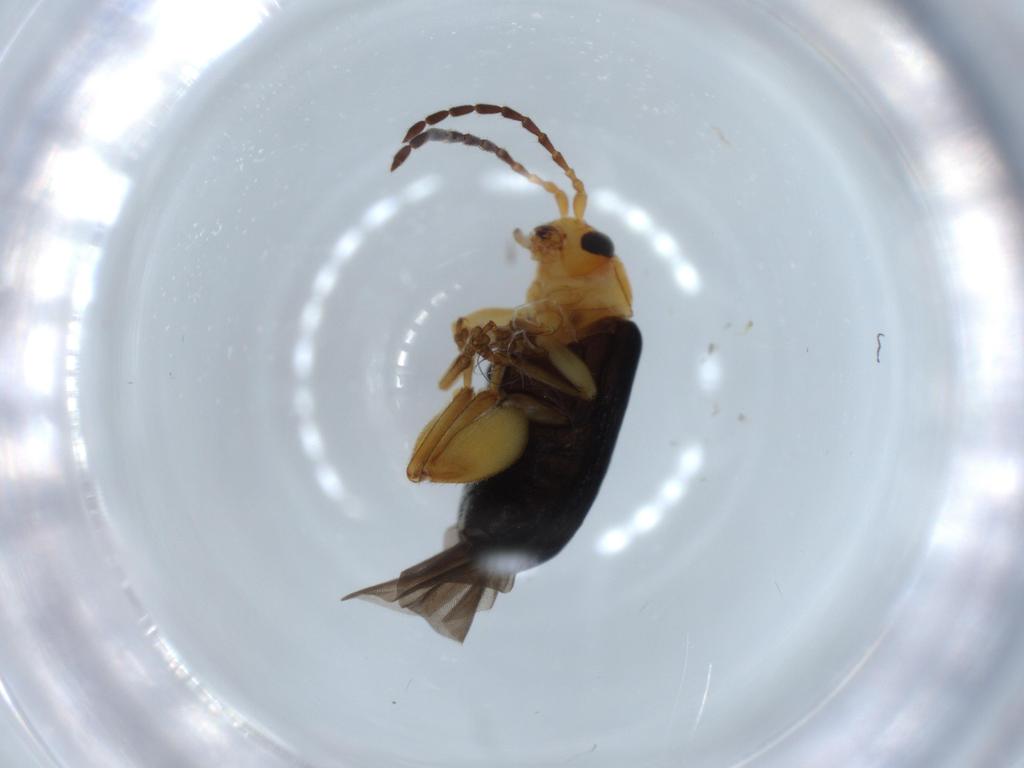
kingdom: Animalia
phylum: Arthropoda
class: Insecta
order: Coleoptera
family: Chrysomelidae
